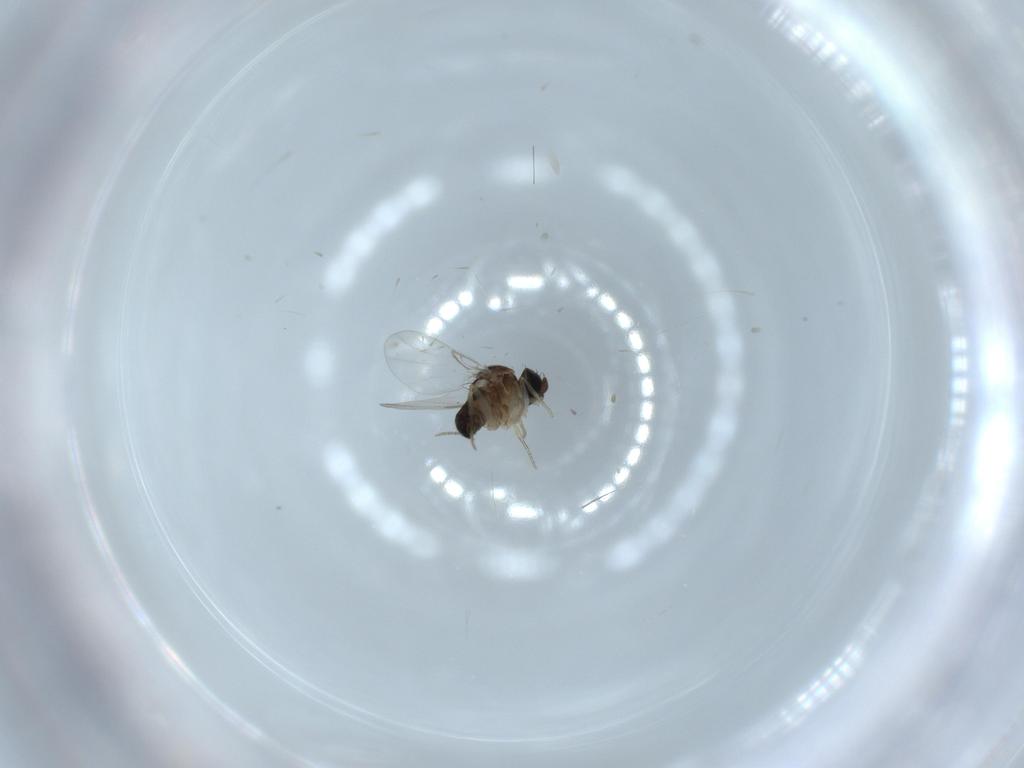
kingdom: Animalia
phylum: Arthropoda
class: Insecta
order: Diptera
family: Phoridae
